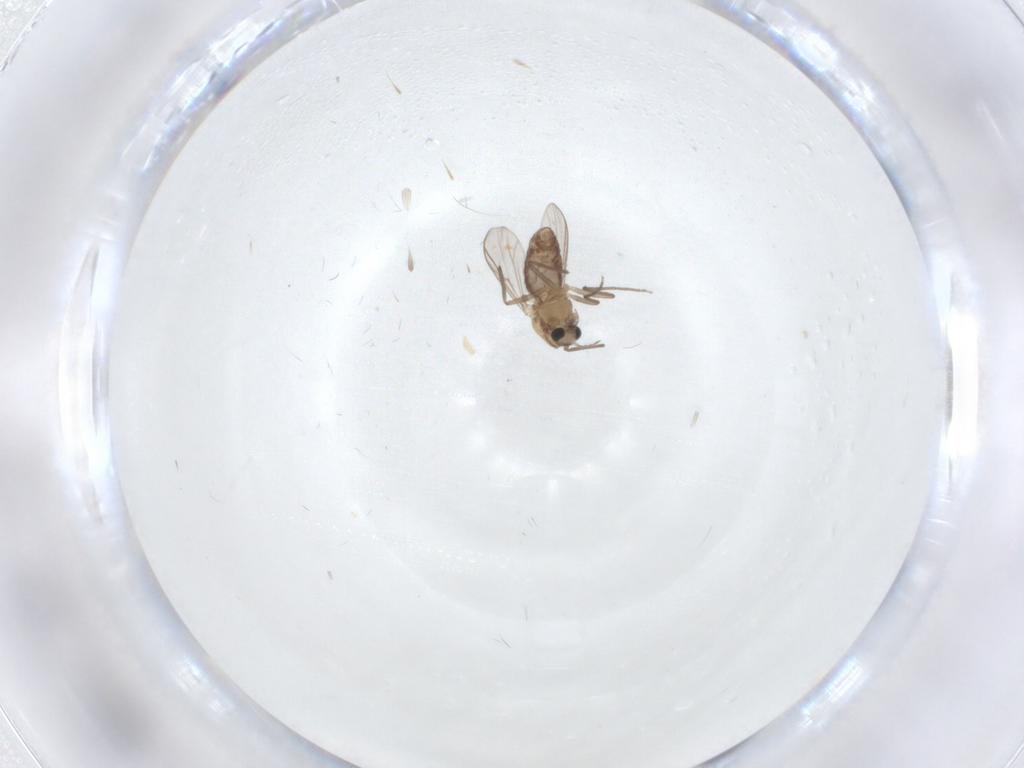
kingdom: Animalia
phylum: Arthropoda
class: Insecta
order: Diptera
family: Chironomidae
